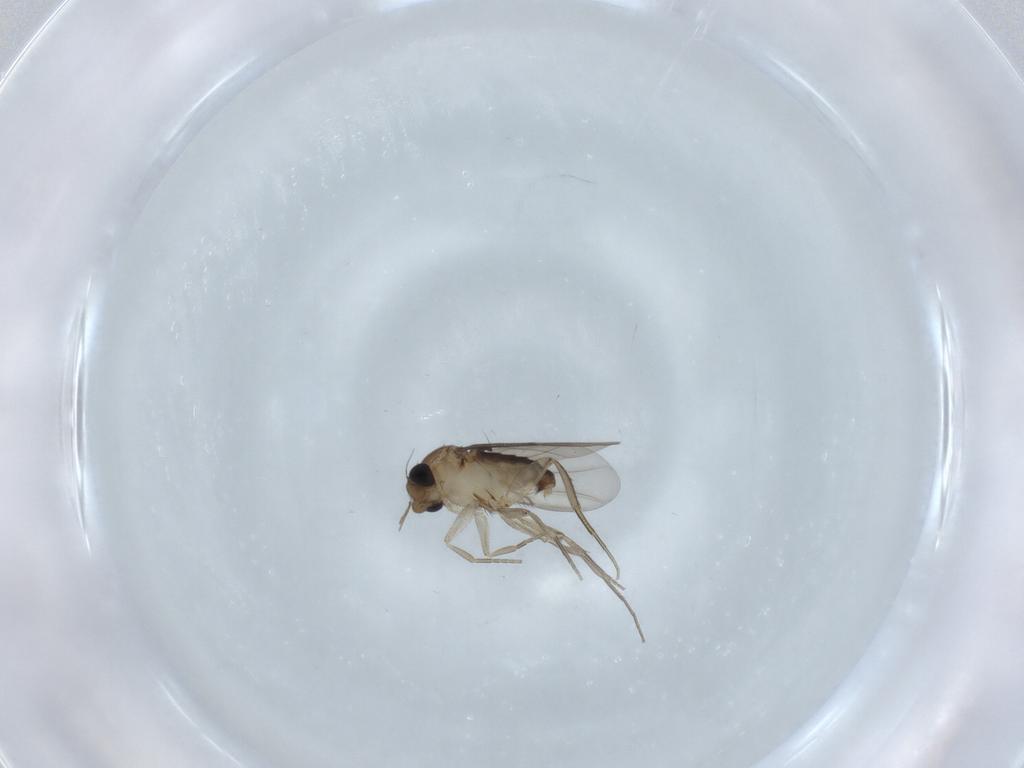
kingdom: Animalia
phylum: Arthropoda
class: Insecta
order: Diptera
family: Phoridae
